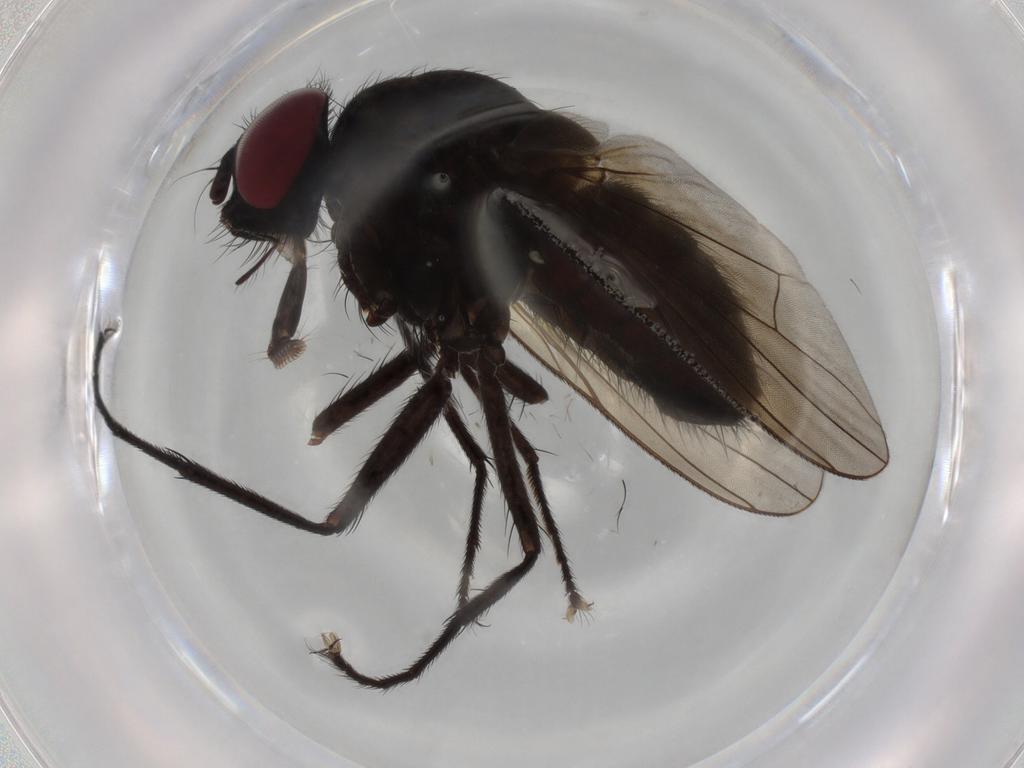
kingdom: Animalia
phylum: Arthropoda
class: Insecta
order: Diptera
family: Muscidae
